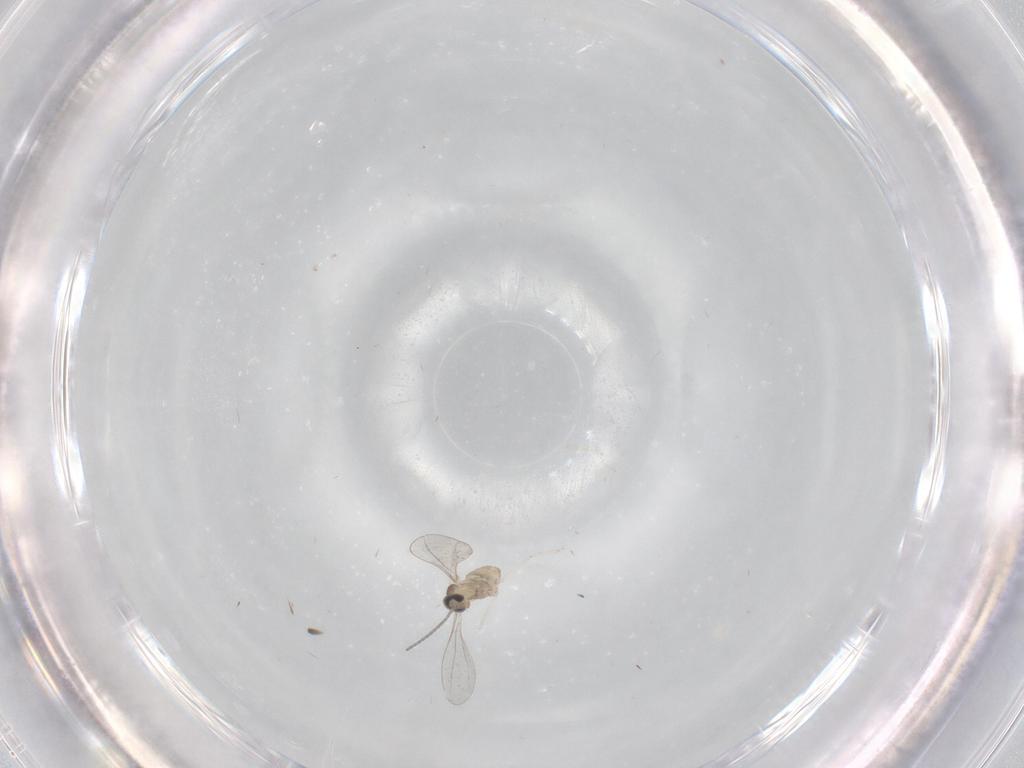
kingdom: Animalia
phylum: Arthropoda
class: Insecta
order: Diptera
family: Cecidomyiidae
